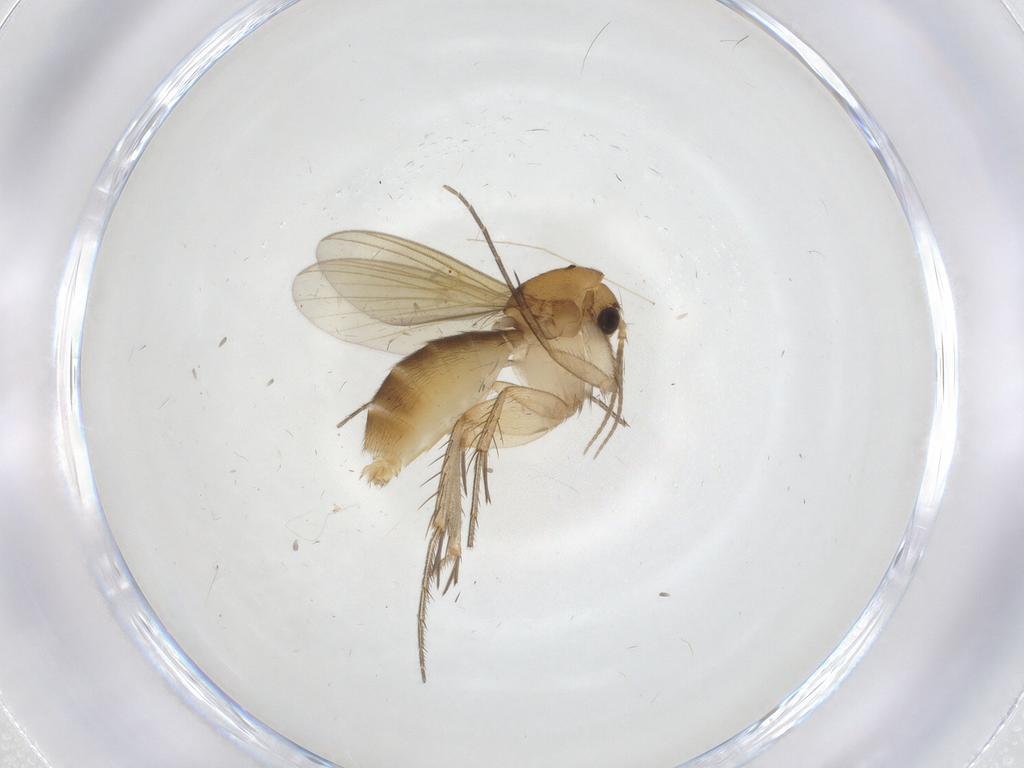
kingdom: Animalia
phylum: Arthropoda
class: Insecta
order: Diptera
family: Mycetophilidae
